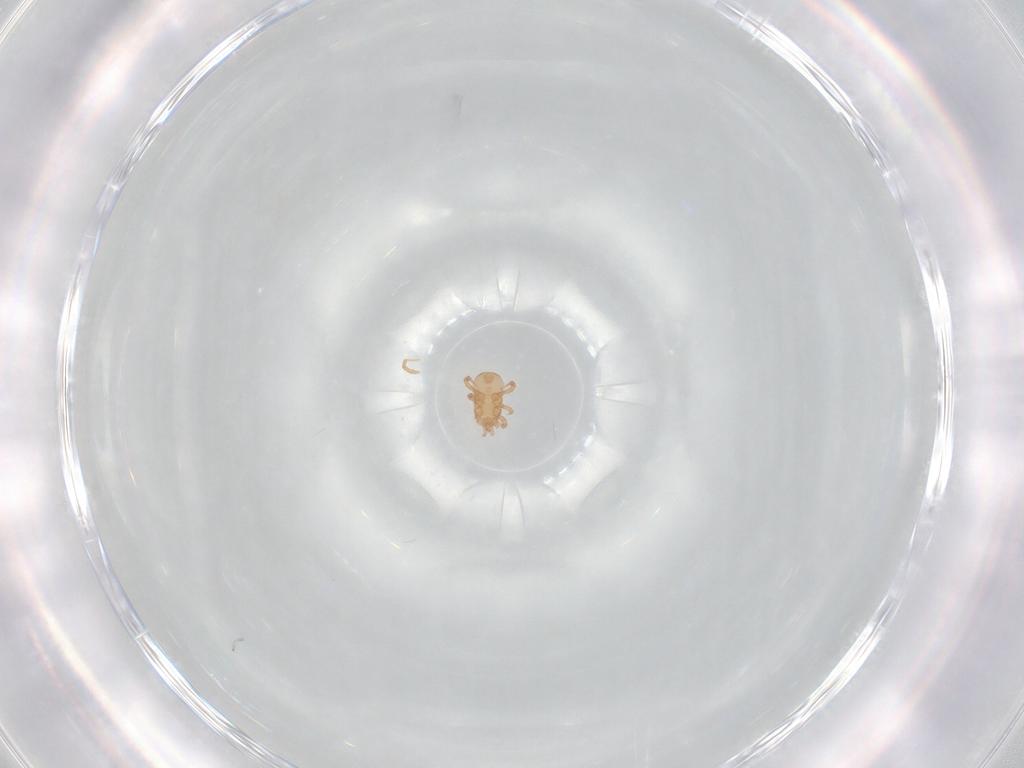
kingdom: Animalia
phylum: Arthropoda
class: Arachnida
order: Mesostigmata
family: Ascidae
